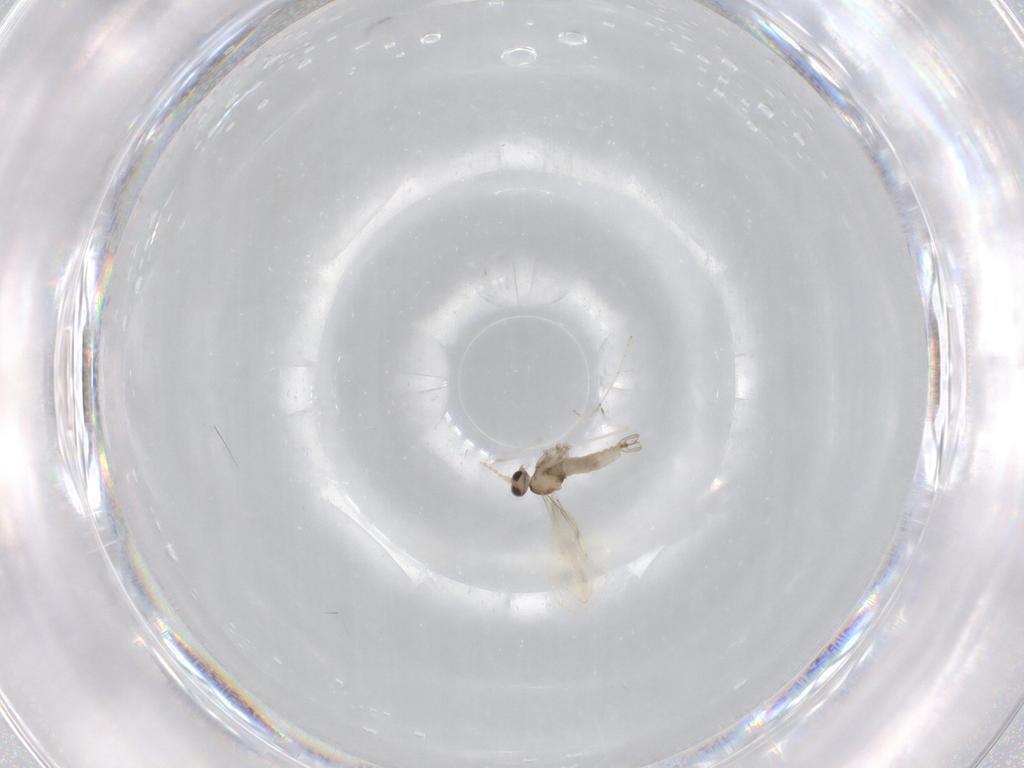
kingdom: Animalia
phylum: Arthropoda
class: Insecta
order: Diptera
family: Cecidomyiidae
